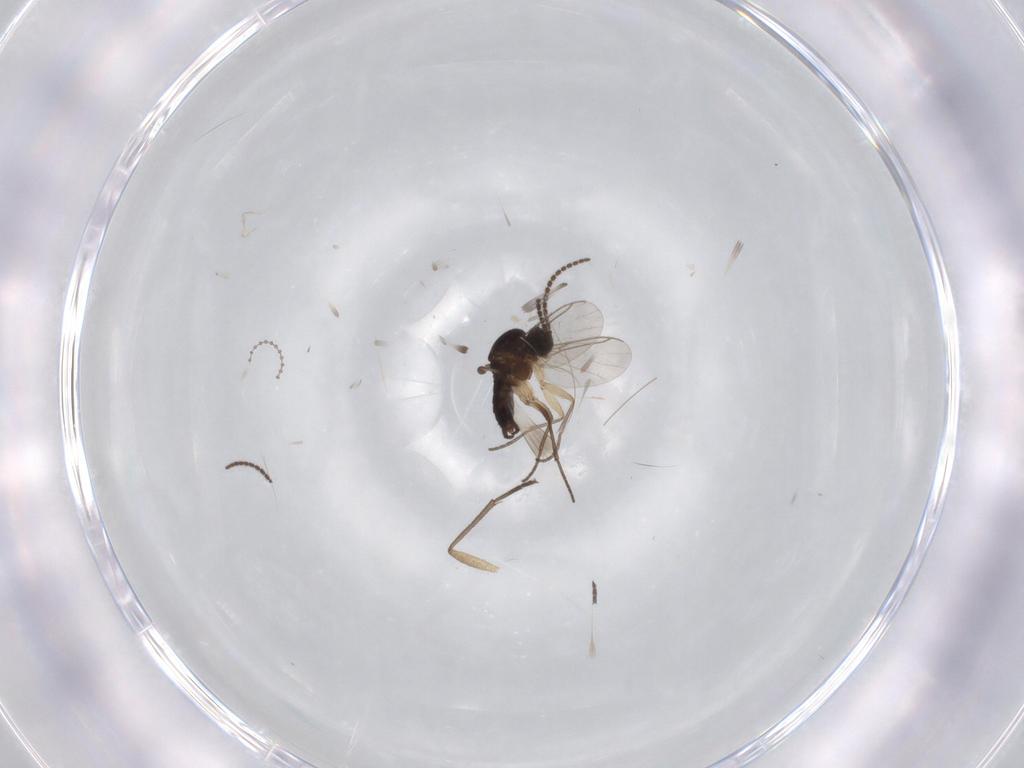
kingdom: Animalia
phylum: Arthropoda
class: Insecta
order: Diptera
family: Sciaridae
